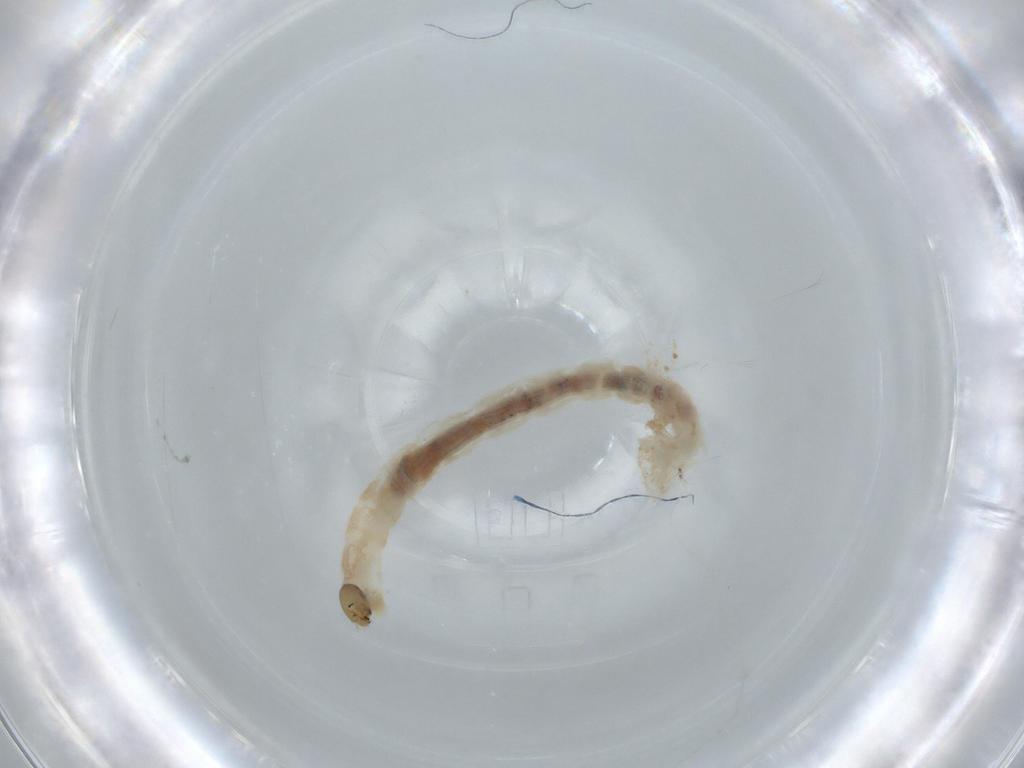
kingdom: Animalia
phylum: Arthropoda
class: Insecta
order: Diptera
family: Chironomidae
